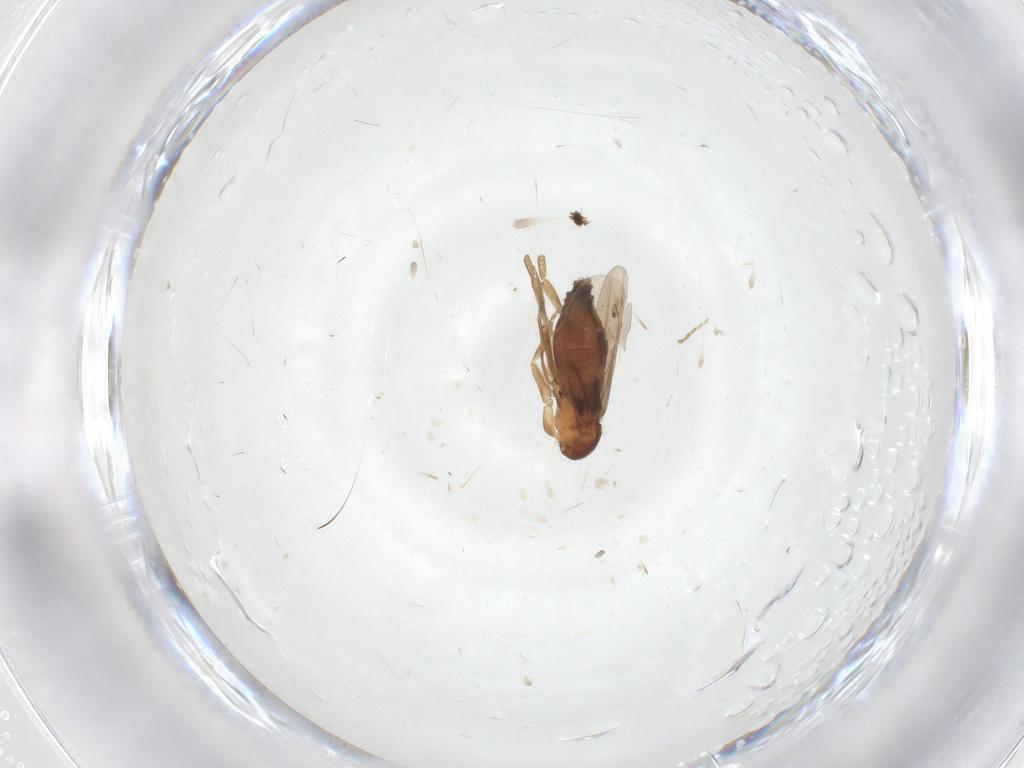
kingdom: Animalia
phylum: Arthropoda
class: Insecta
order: Diptera
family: Phoridae
